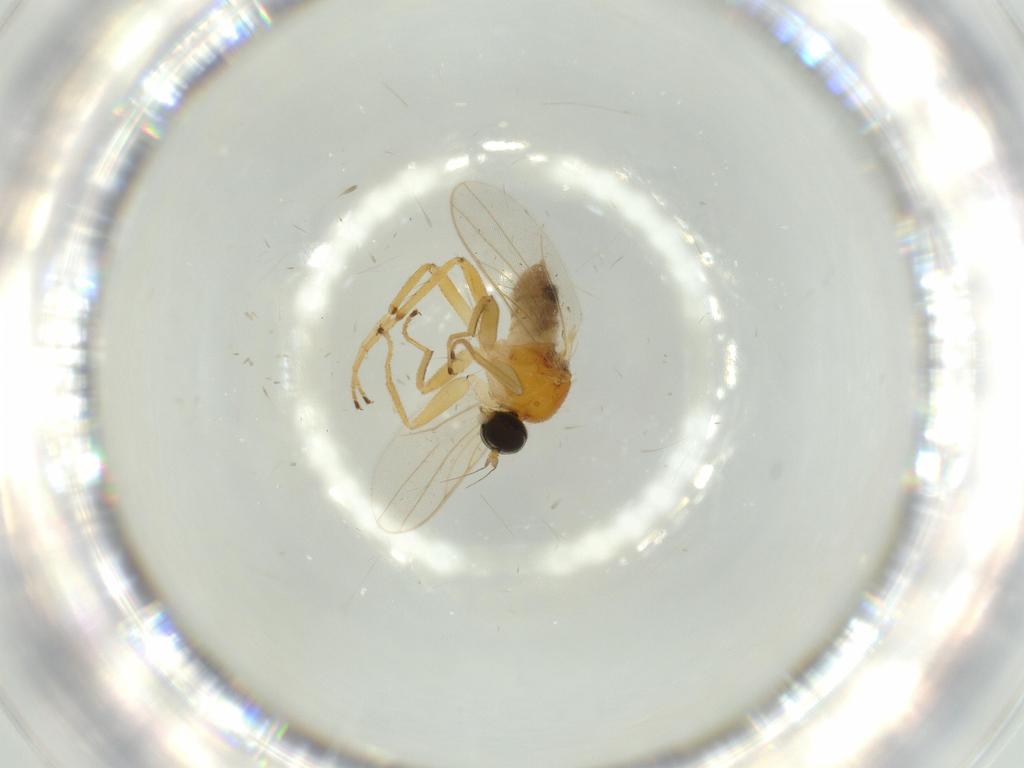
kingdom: Animalia
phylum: Arthropoda
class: Insecta
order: Diptera
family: Hybotidae
